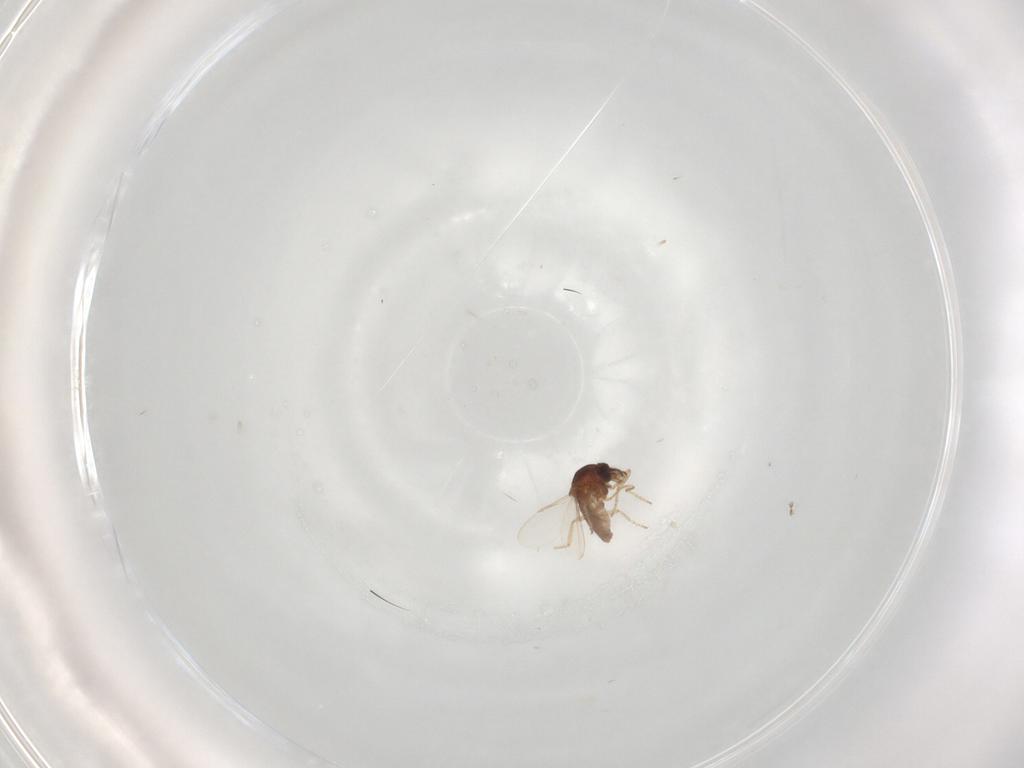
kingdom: Animalia
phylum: Arthropoda
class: Insecta
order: Diptera
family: Ceratopogonidae
